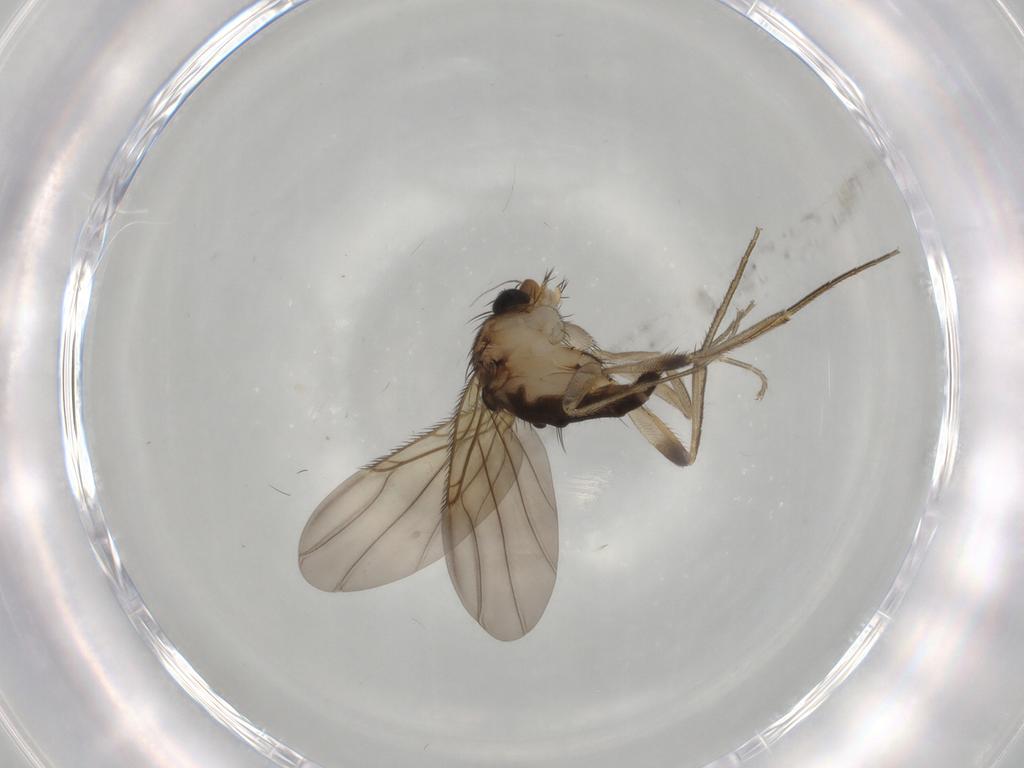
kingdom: Animalia
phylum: Arthropoda
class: Insecta
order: Diptera
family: Phoridae
